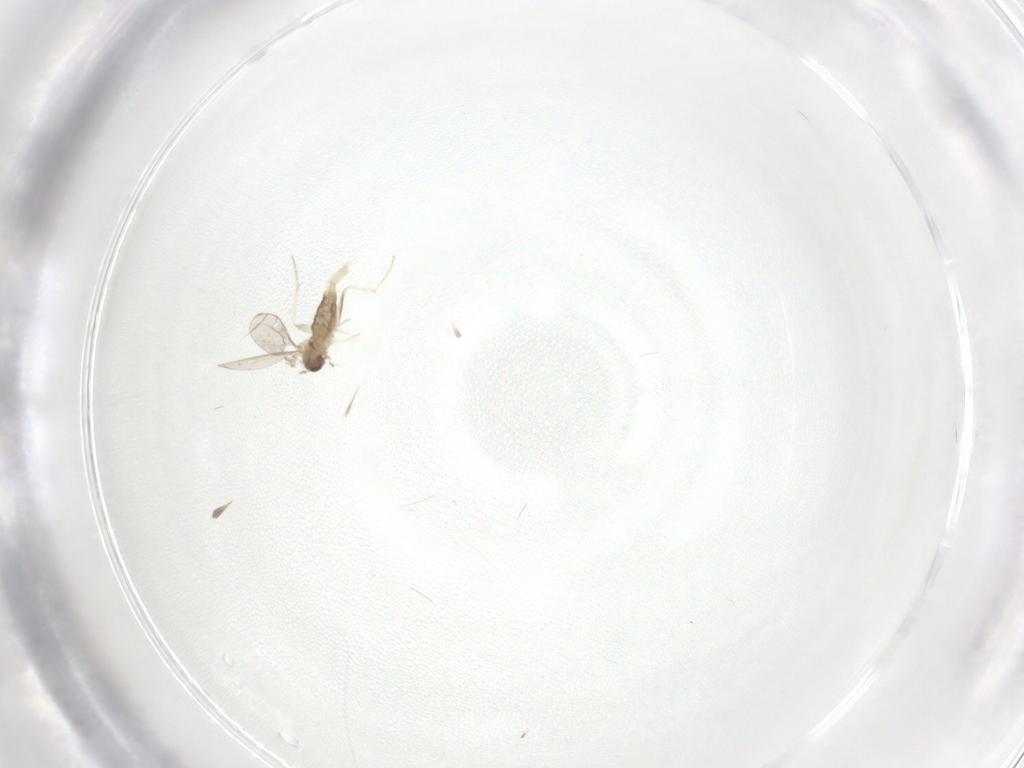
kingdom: Animalia
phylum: Arthropoda
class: Insecta
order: Diptera
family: Cecidomyiidae
